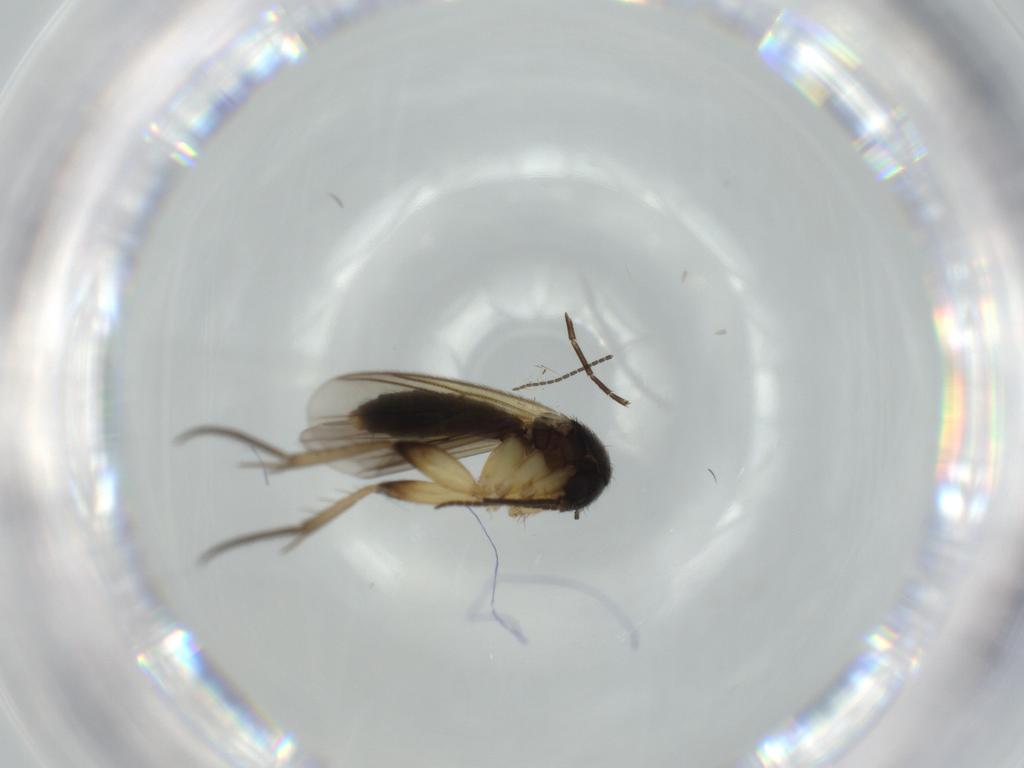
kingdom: Animalia
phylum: Arthropoda
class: Insecta
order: Diptera
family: Mycetophilidae
